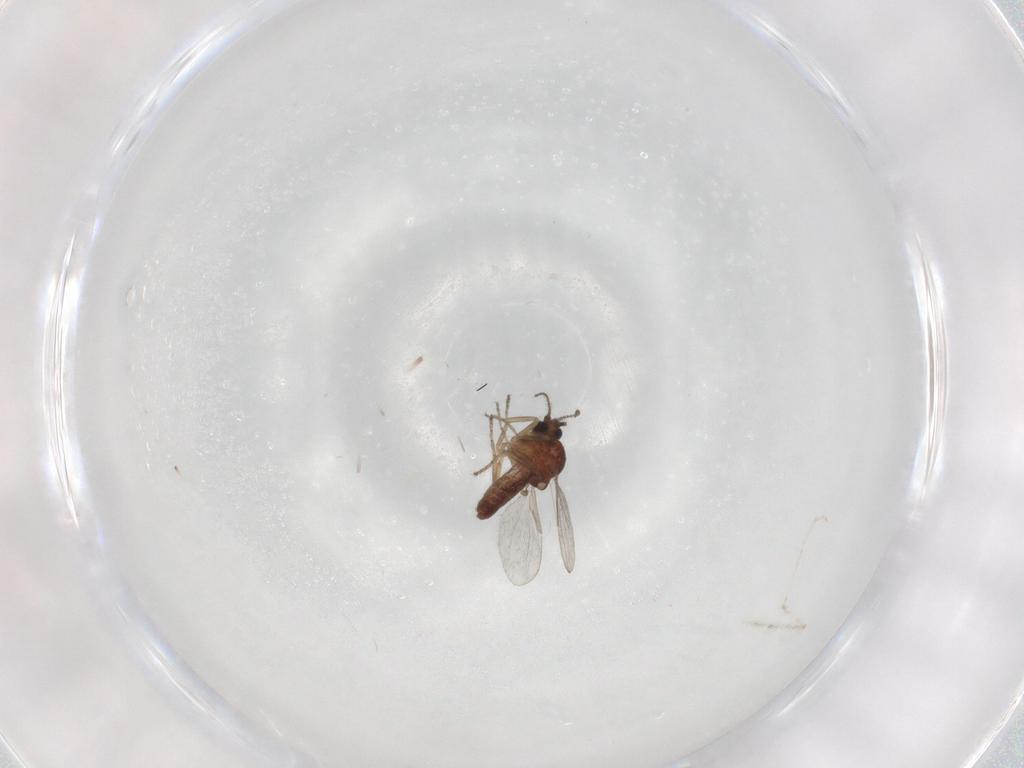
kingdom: Animalia
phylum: Arthropoda
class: Insecta
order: Diptera
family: Ceratopogonidae
